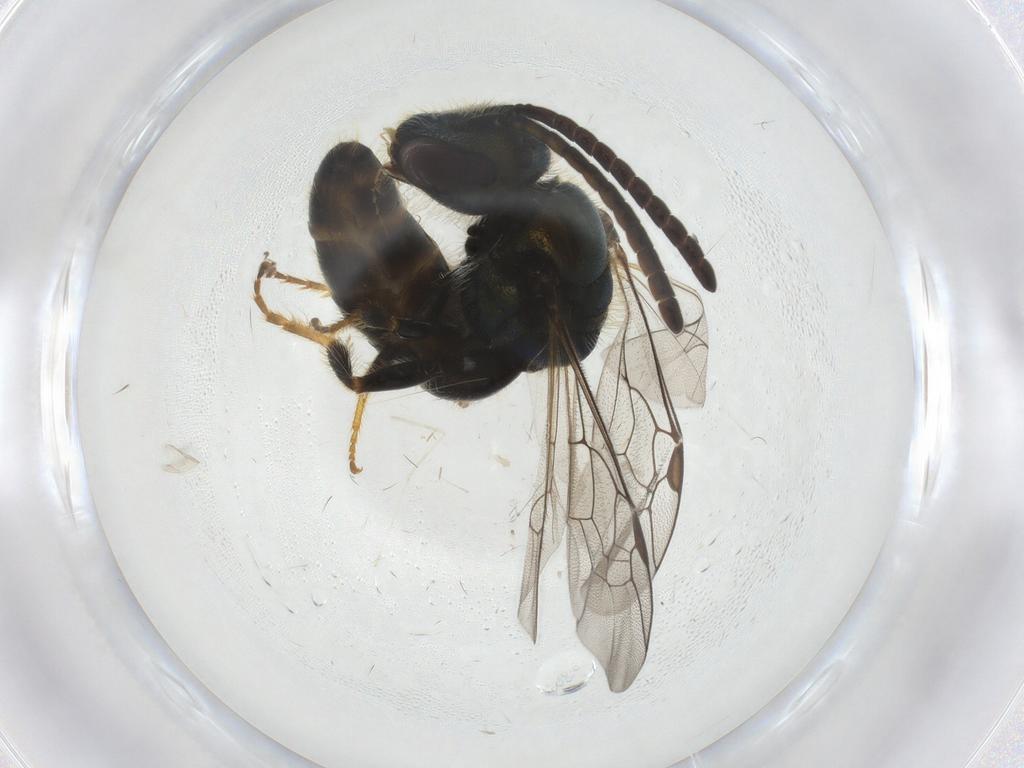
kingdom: Animalia
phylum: Arthropoda
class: Insecta
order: Hymenoptera
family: Halictidae
